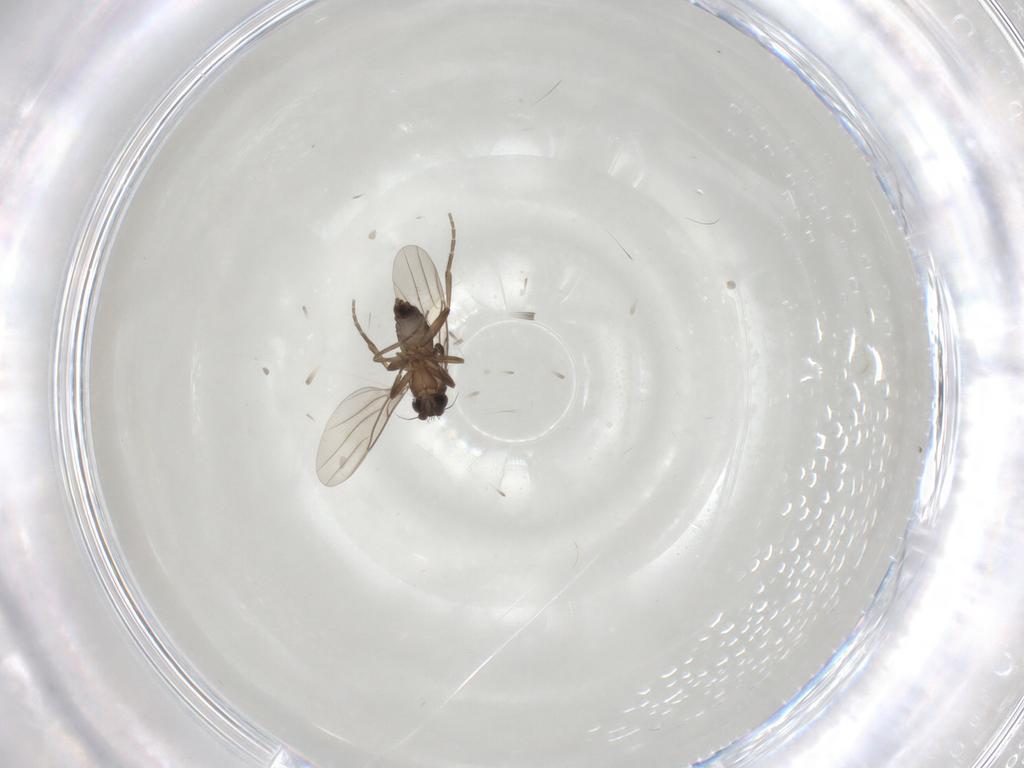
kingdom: Animalia
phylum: Arthropoda
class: Insecta
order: Diptera
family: Phoridae
